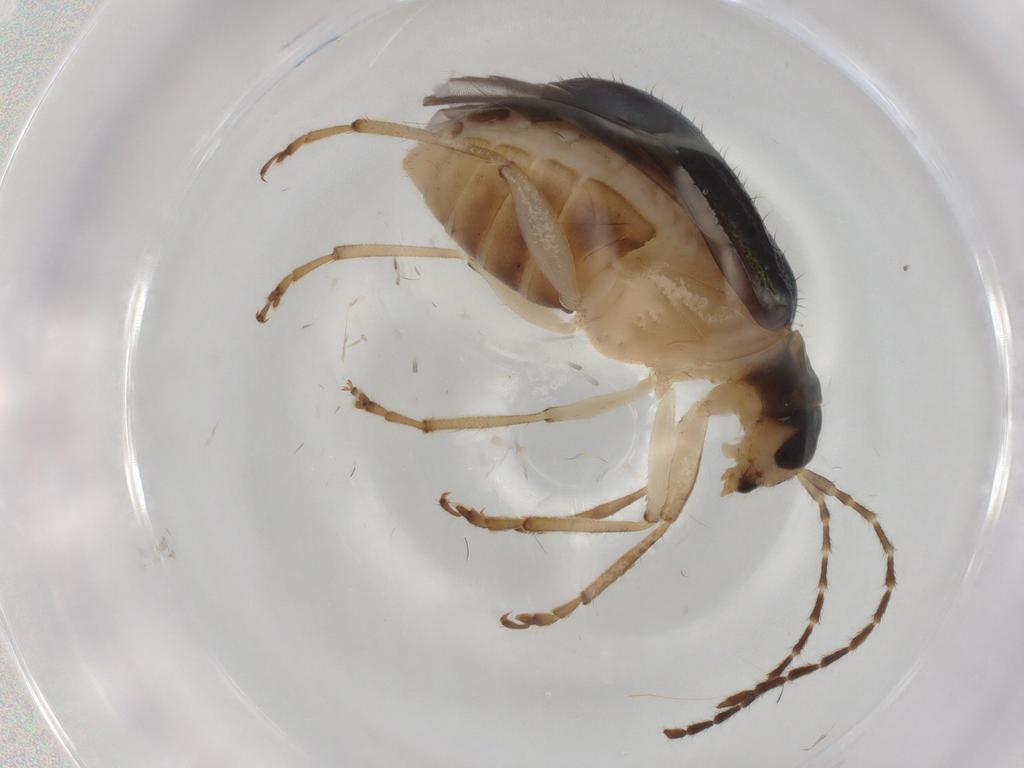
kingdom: Animalia
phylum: Arthropoda
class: Insecta
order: Coleoptera
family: Chrysomelidae
